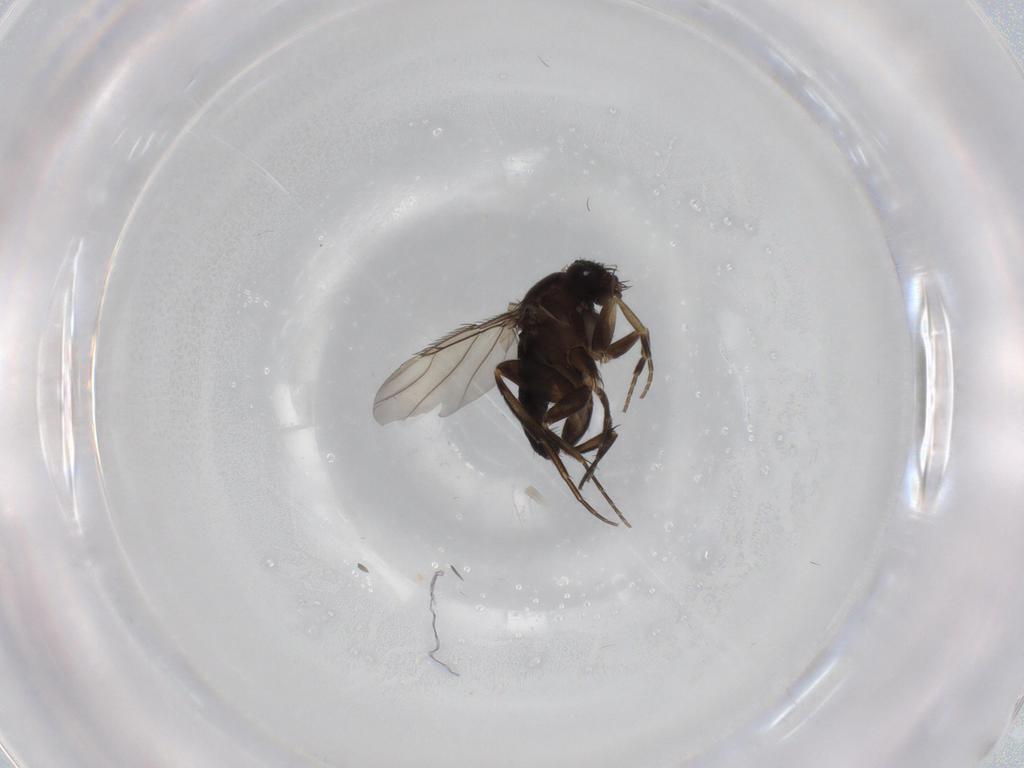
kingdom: Animalia
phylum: Arthropoda
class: Insecta
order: Diptera
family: Phoridae
